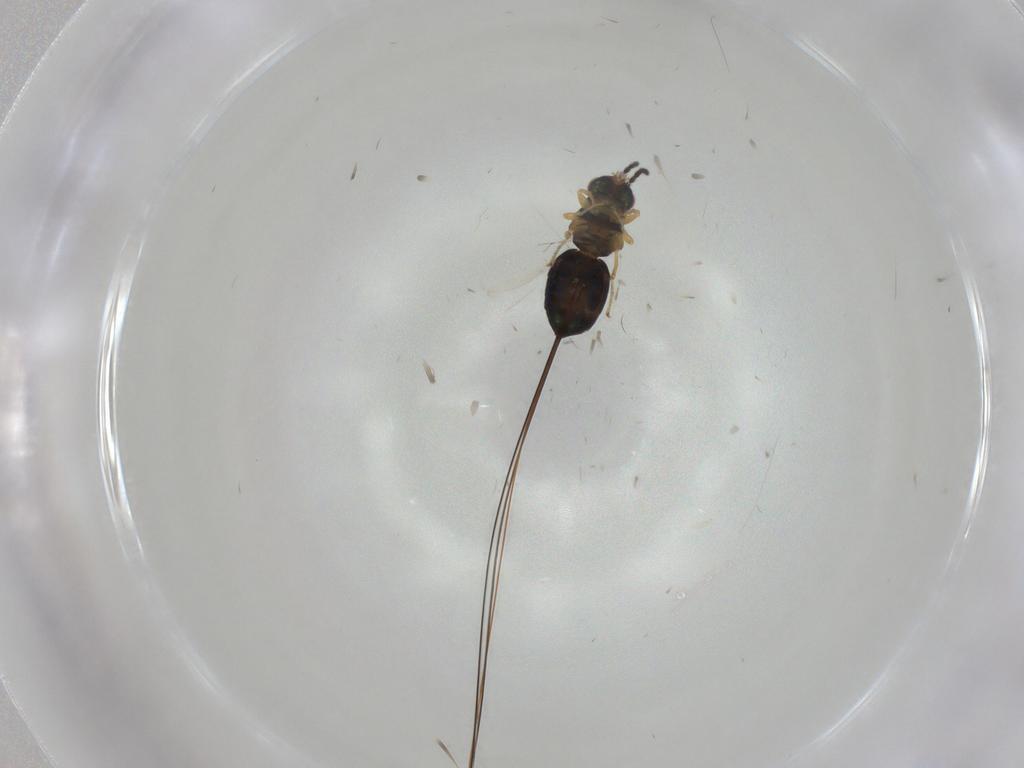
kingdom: Animalia
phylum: Arthropoda
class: Insecta
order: Hymenoptera
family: Pteromalidae
